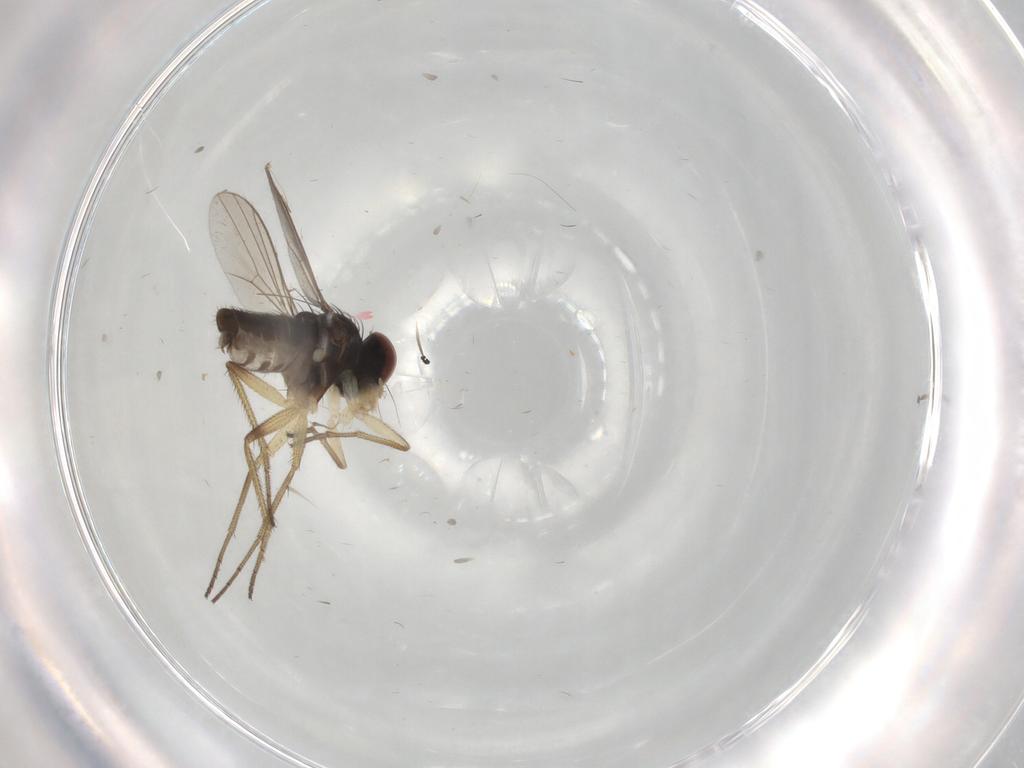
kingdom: Animalia
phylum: Arthropoda
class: Insecta
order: Diptera
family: Dolichopodidae
